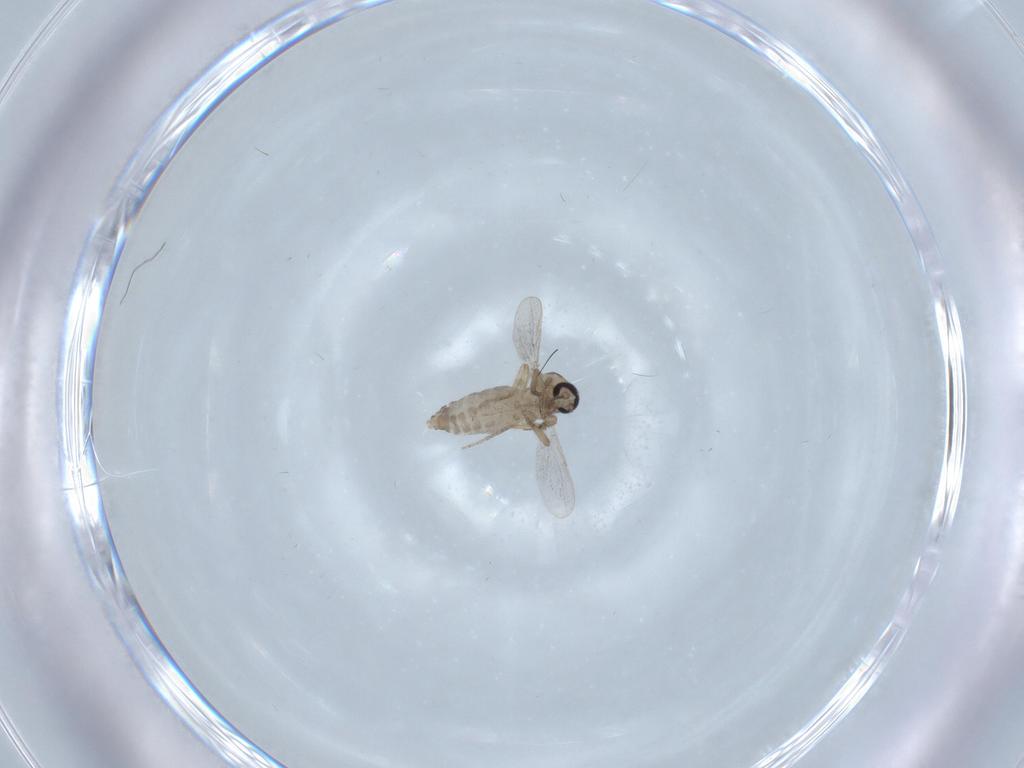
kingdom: Animalia
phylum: Arthropoda
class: Insecta
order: Diptera
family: Ceratopogonidae
